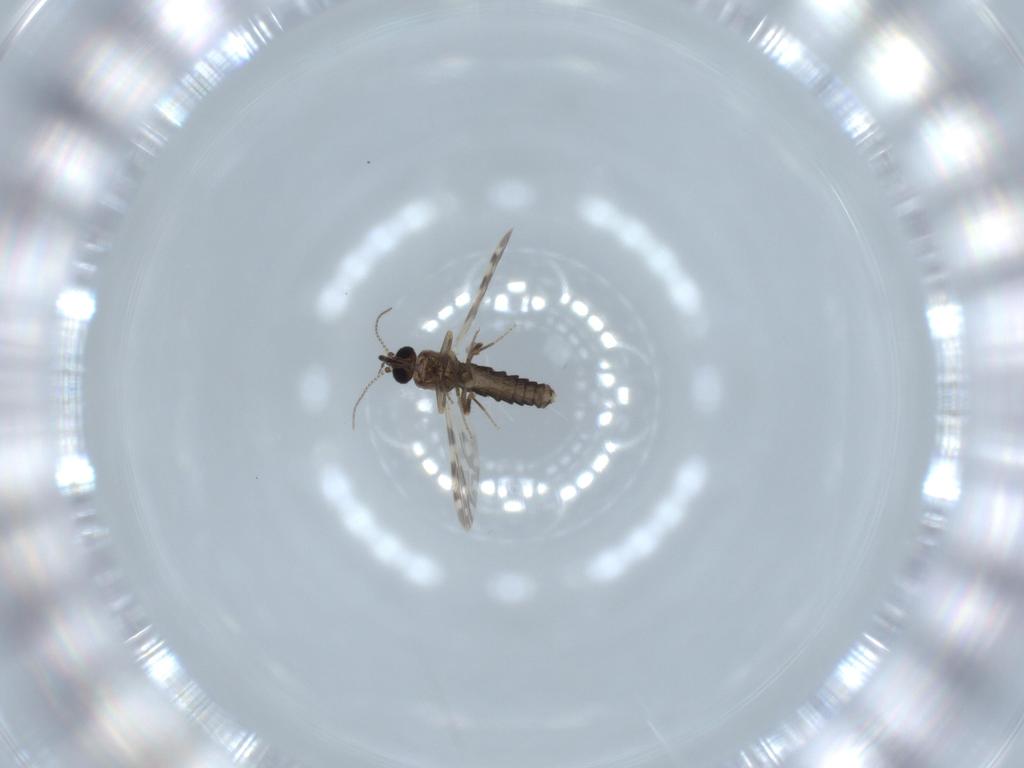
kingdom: Animalia
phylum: Arthropoda
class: Insecta
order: Diptera
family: Ceratopogonidae
